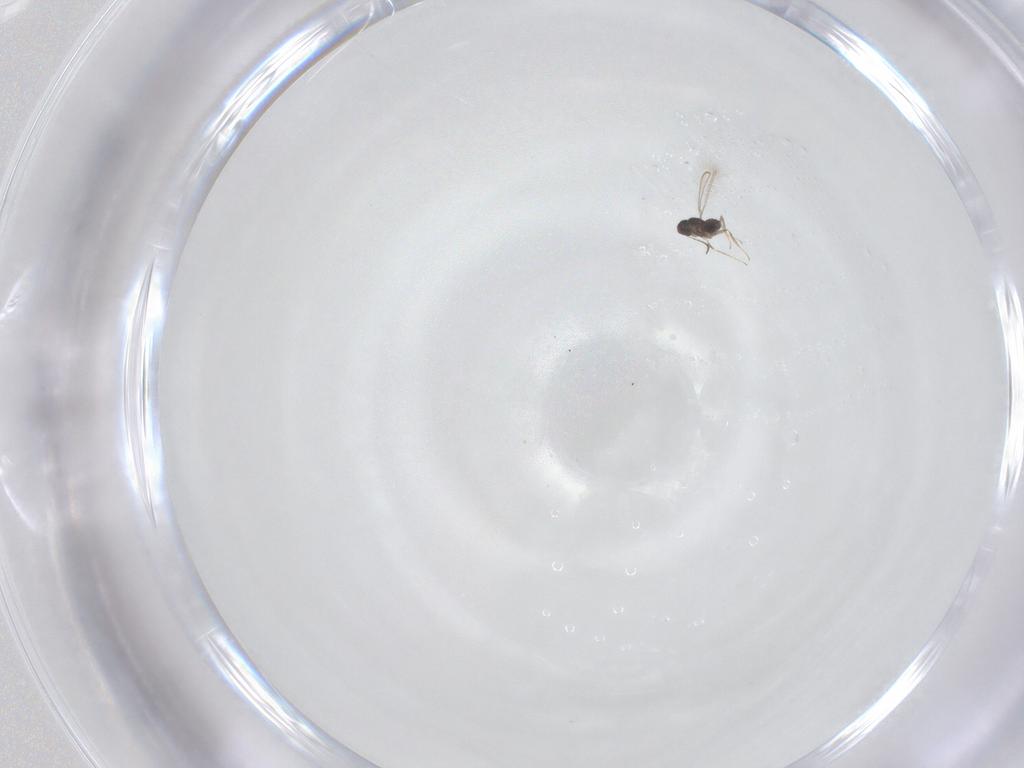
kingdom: Animalia
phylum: Arthropoda
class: Insecta
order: Hymenoptera
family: Mymaridae
